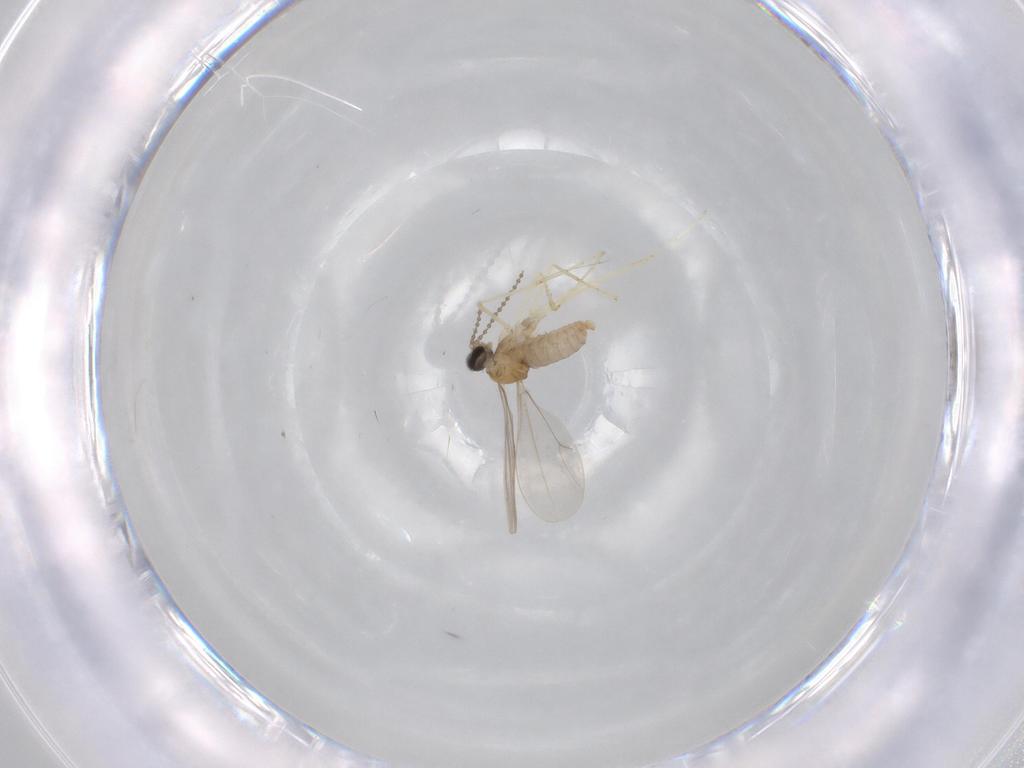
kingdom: Animalia
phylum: Arthropoda
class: Insecta
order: Diptera
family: Cecidomyiidae
